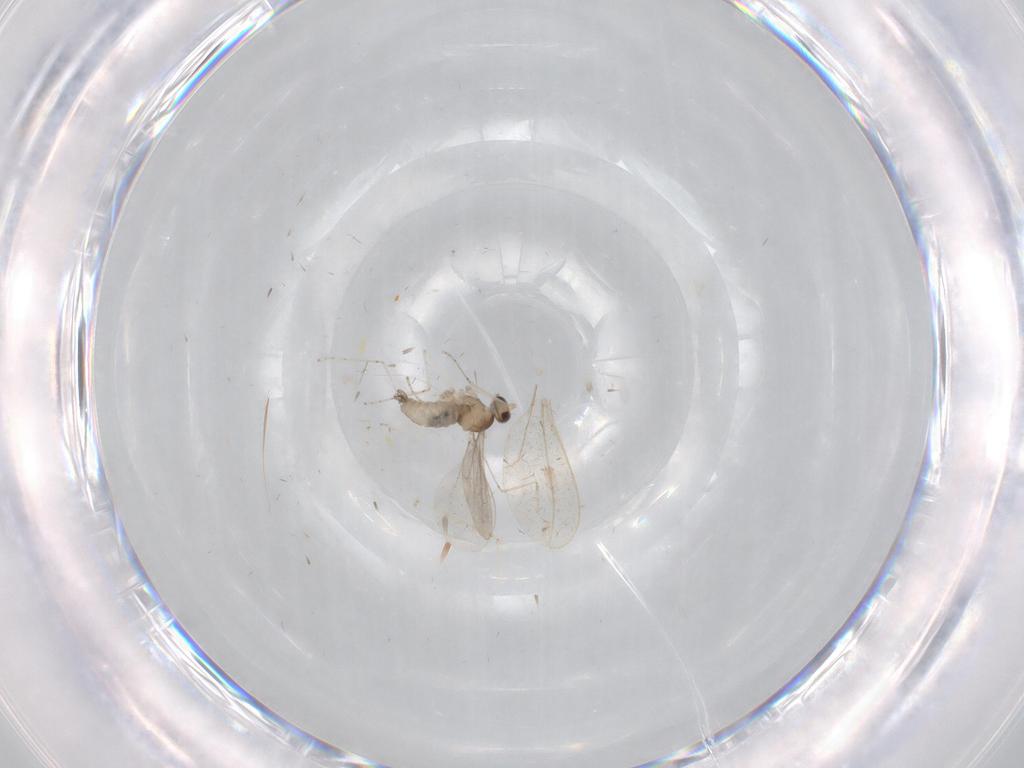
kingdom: Animalia
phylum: Arthropoda
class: Insecta
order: Diptera
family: Cecidomyiidae
